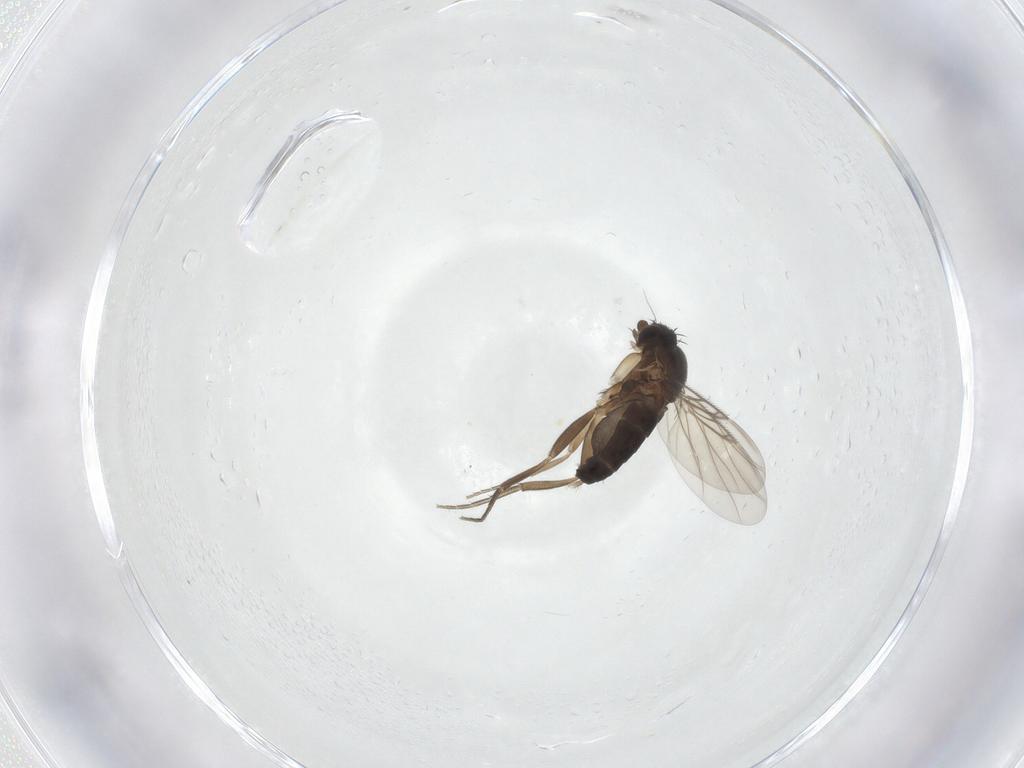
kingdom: Animalia
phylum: Arthropoda
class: Insecta
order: Diptera
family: Phoridae
